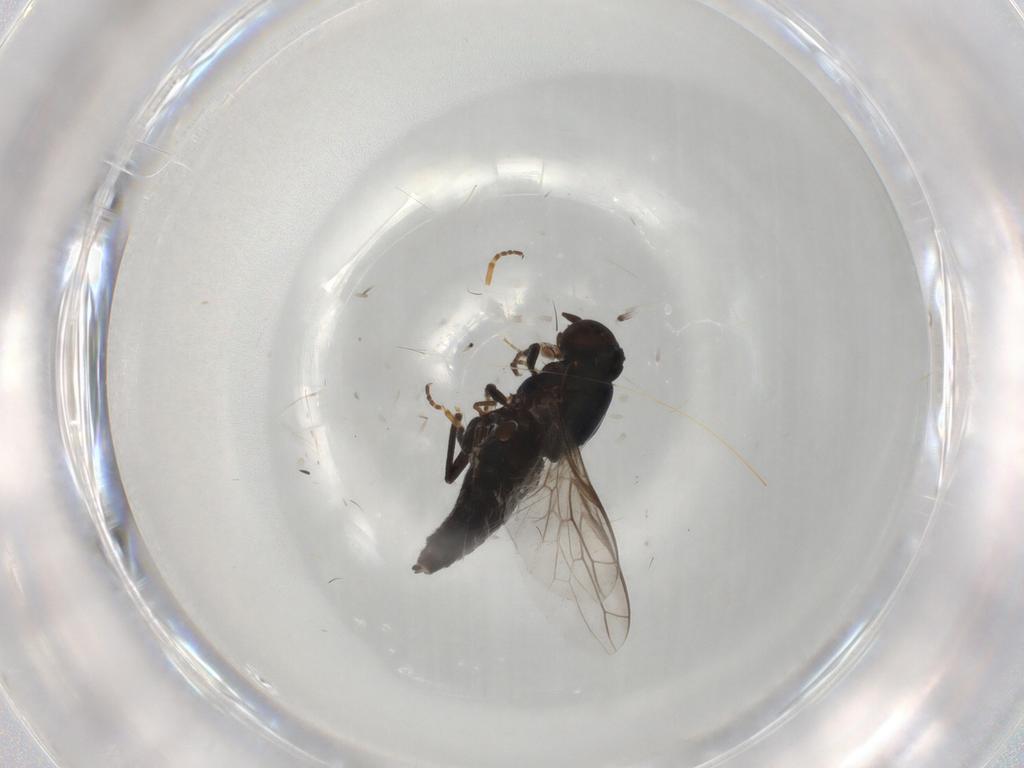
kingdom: Animalia
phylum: Arthropoda
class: Insecta
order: Diptera
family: Scenopinidae
